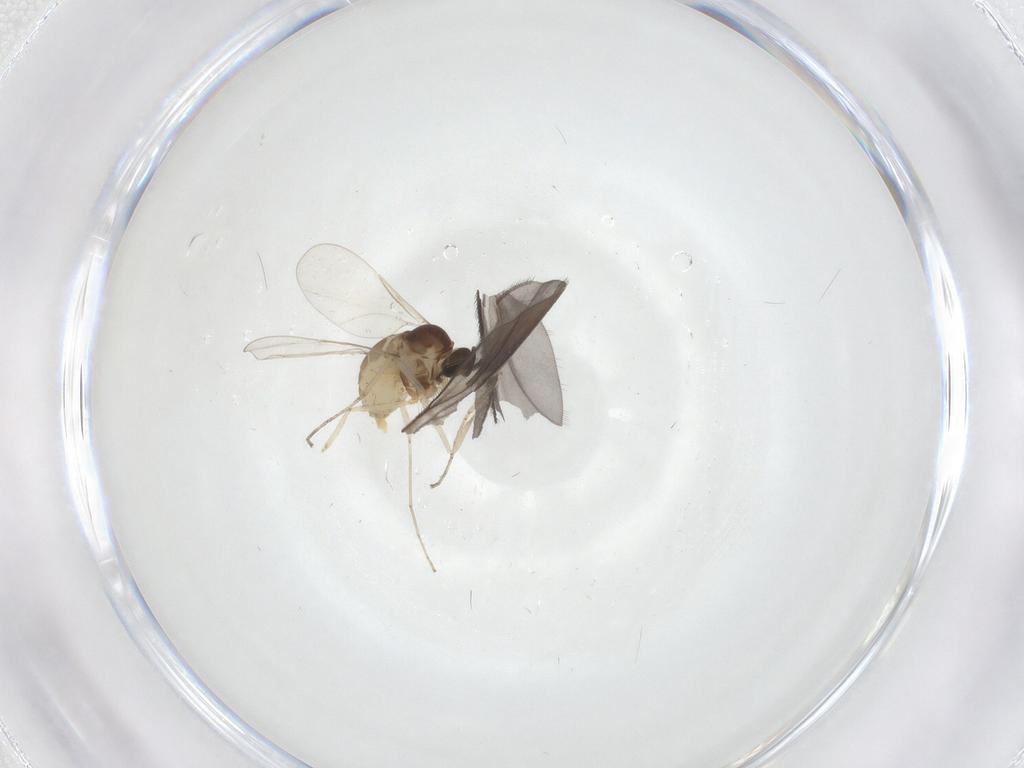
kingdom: Animalia
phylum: Arthropoda
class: Insecta
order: Diptera
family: Cecidomyiidae
